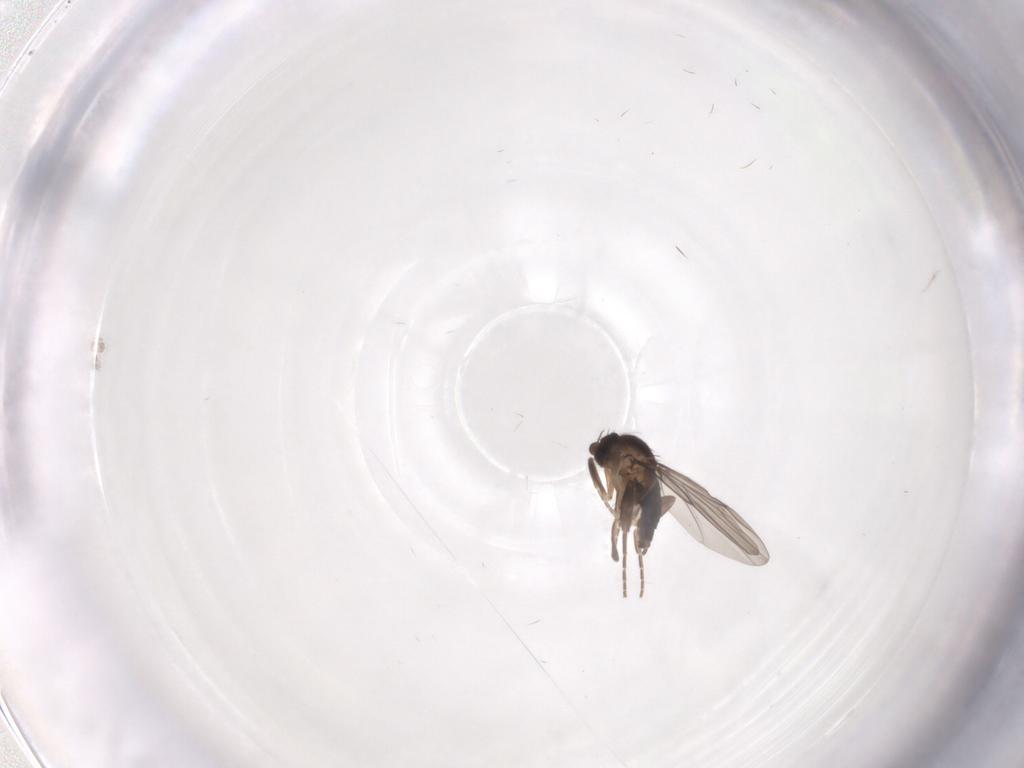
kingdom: Animalia
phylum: Arthropoda
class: Insecta
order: Diptera
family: Phoridae
